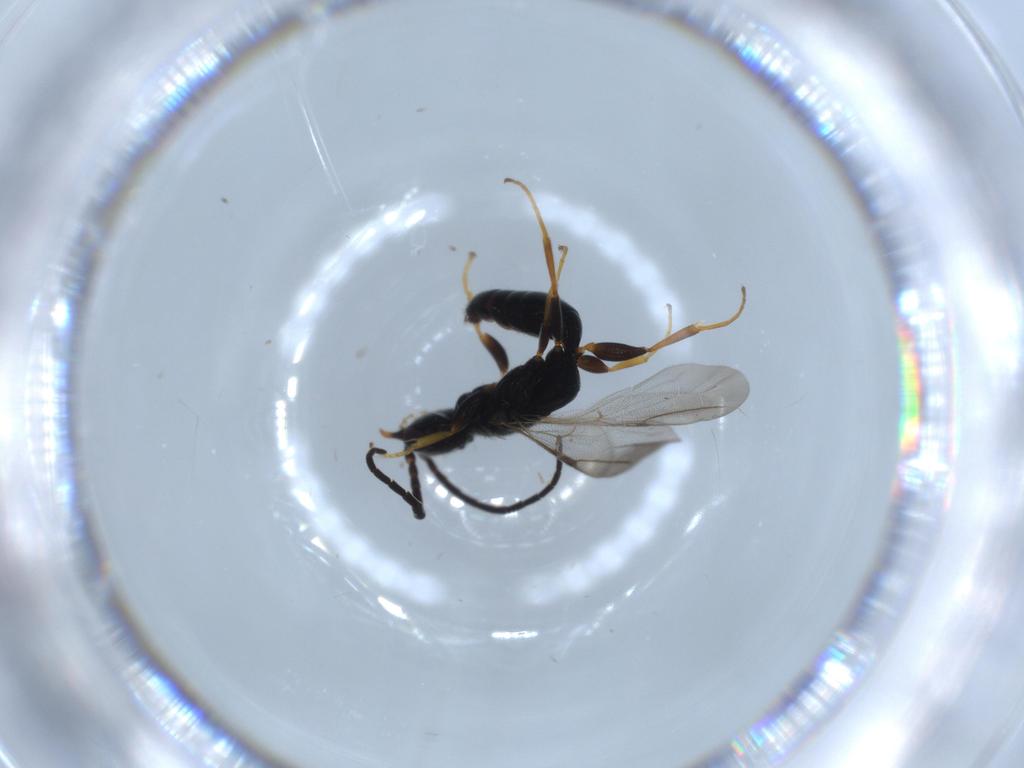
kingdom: Animalia
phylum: Arthropoda
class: Insecta
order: Hymenoptera
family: Bethylidae
